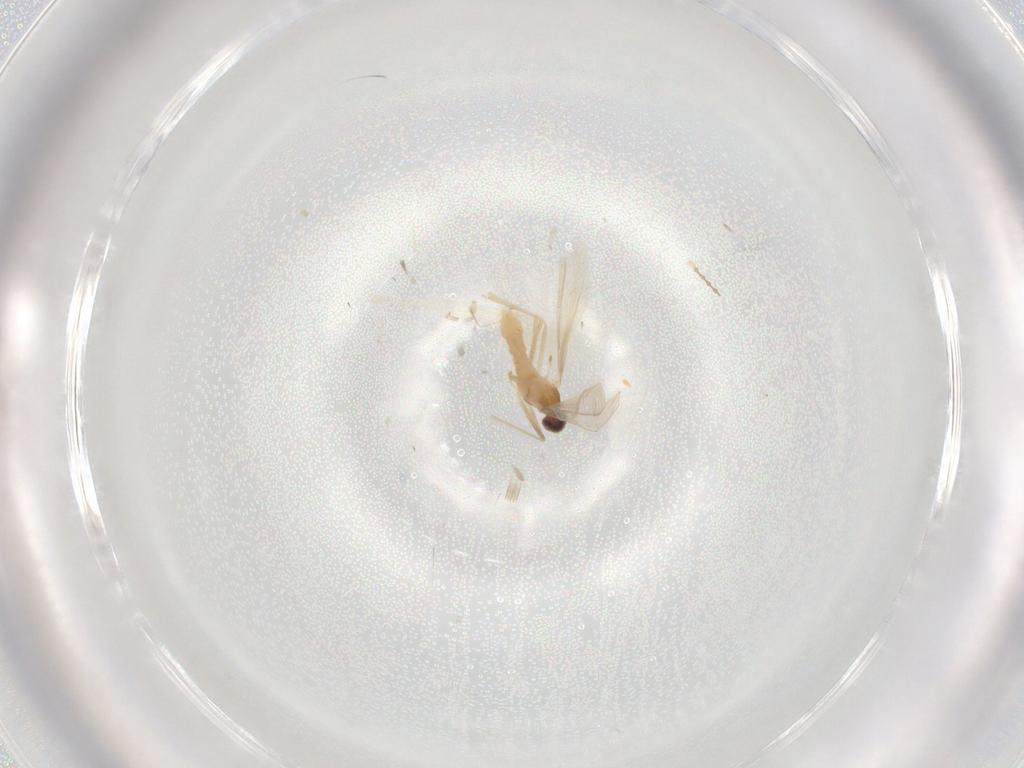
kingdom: Animalia
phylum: Arthropoda
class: Insecta
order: Diptera
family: Cecidomyiidae
